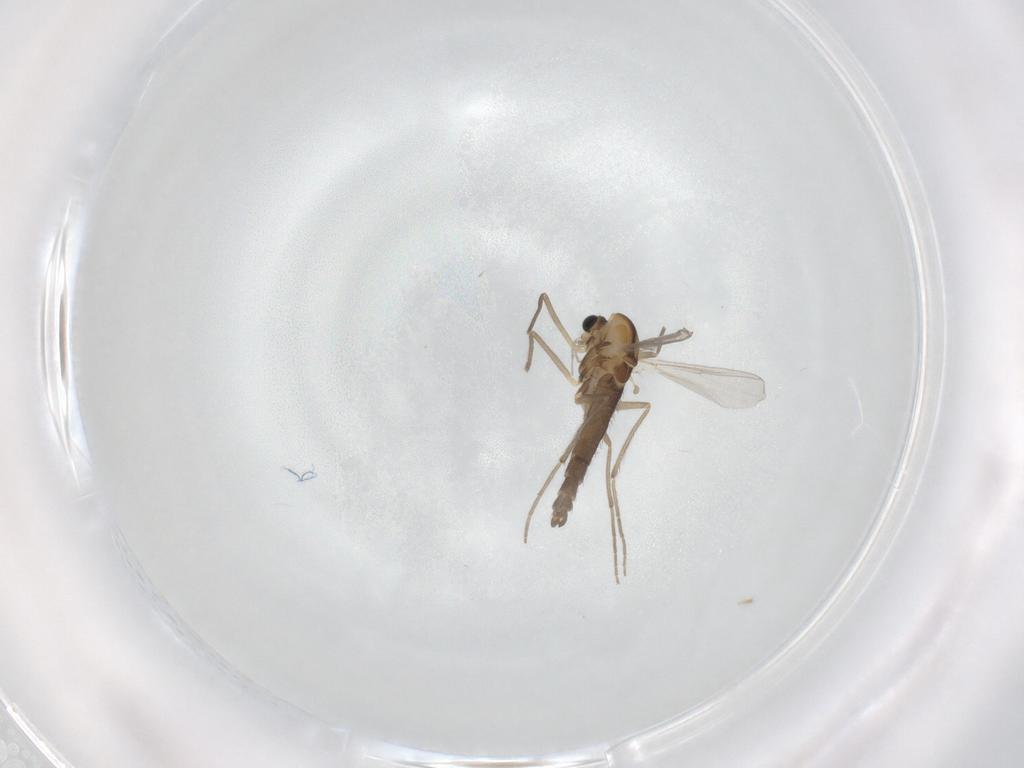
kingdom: Animalia
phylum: Arthropoda
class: Insecta
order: Diptera
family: Chironomidae
